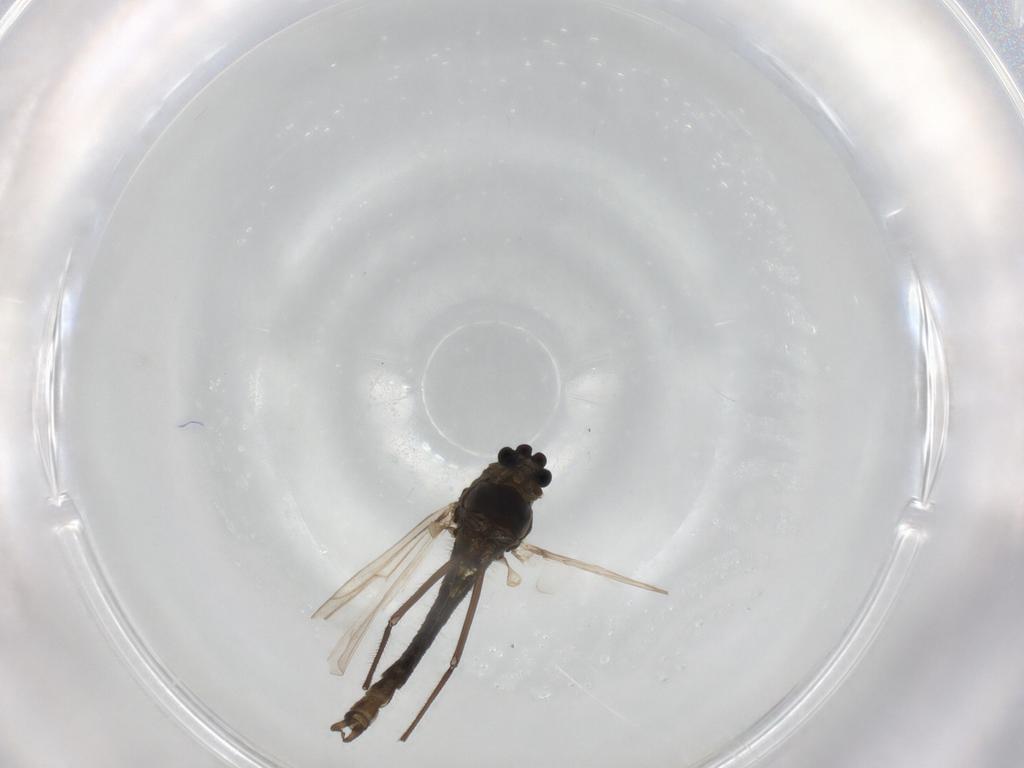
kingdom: Animalia
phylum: Arthropoda
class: Insecta
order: Diptera
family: Chironomidae
